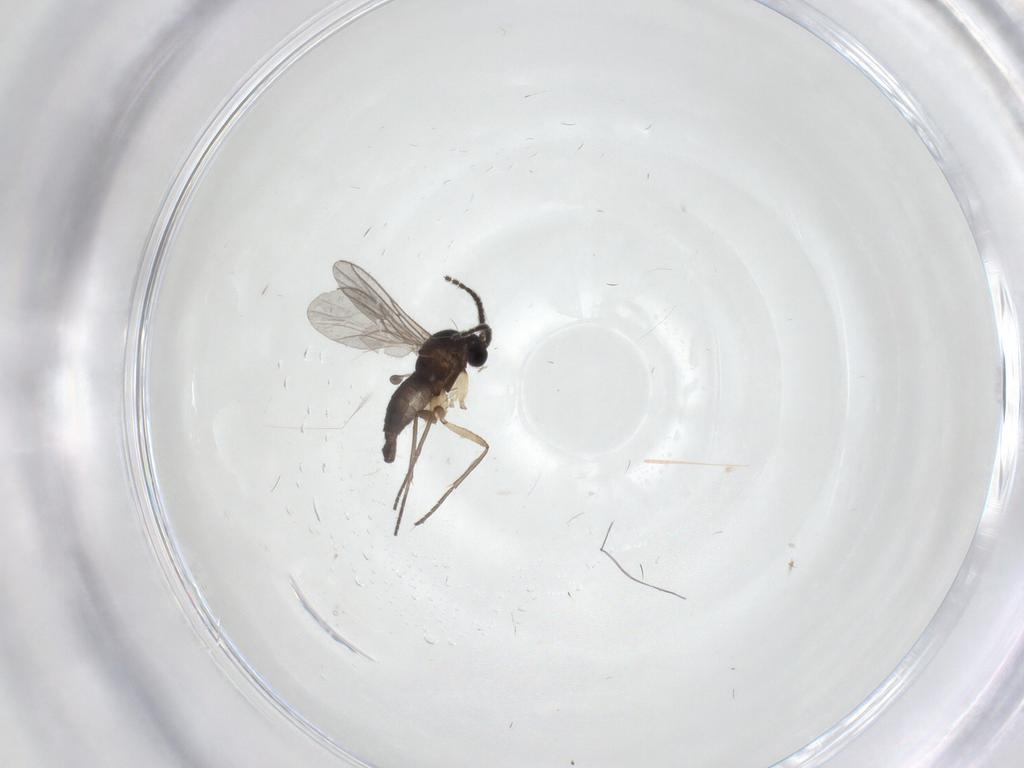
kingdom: Animalia
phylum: Arthropoda
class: Insecta
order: Diptera
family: Sciaridae
